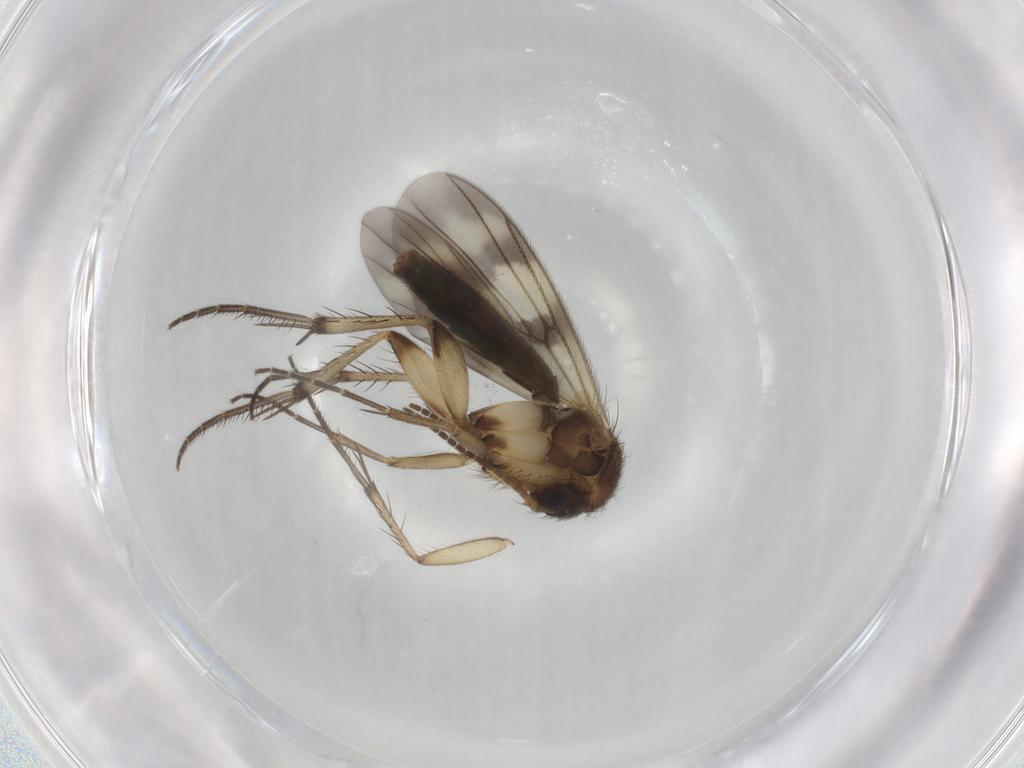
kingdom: Animalia
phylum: Arthropoda
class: Insecta
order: Diptera
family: Mycetophilidae
